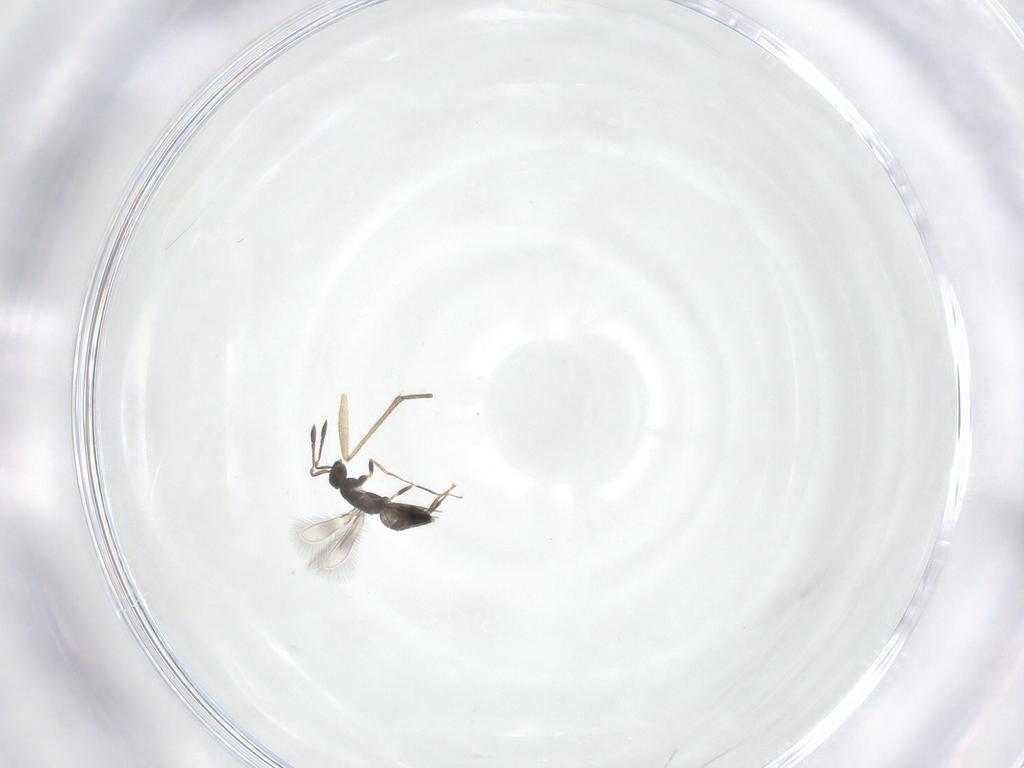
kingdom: Animalia
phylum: Arthropoda
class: Insecta
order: Hymenoptera
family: Mymaridae
